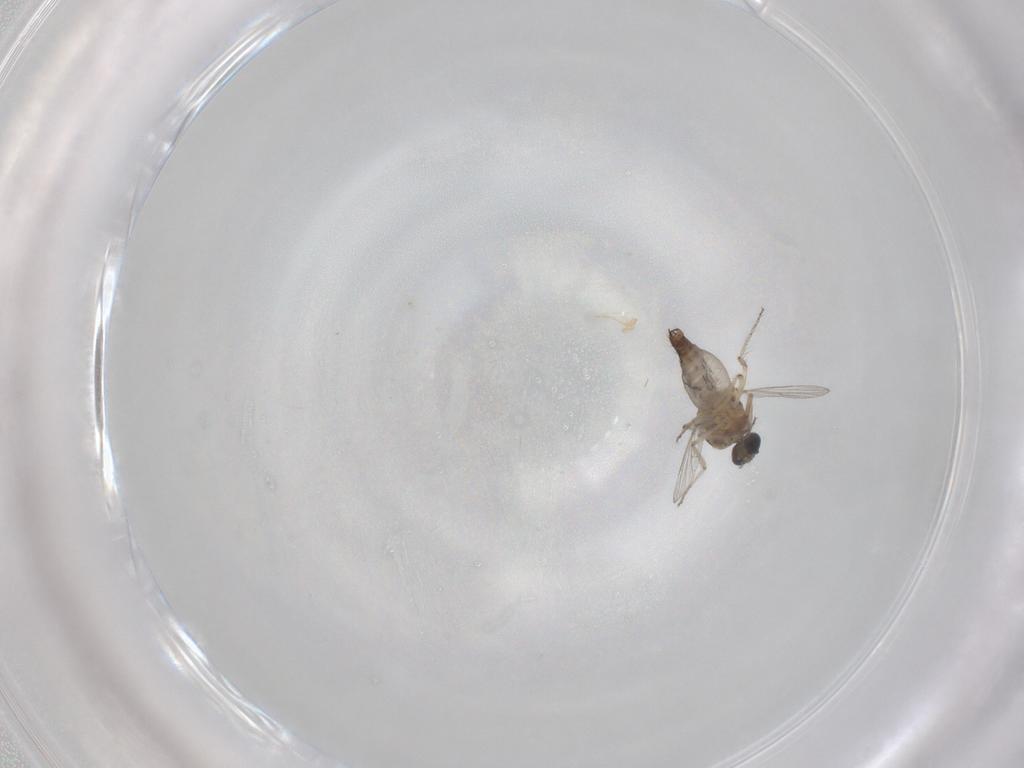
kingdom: Animalia
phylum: Arthropoda
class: Insecta
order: Diptera
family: Ceratopogonidae
